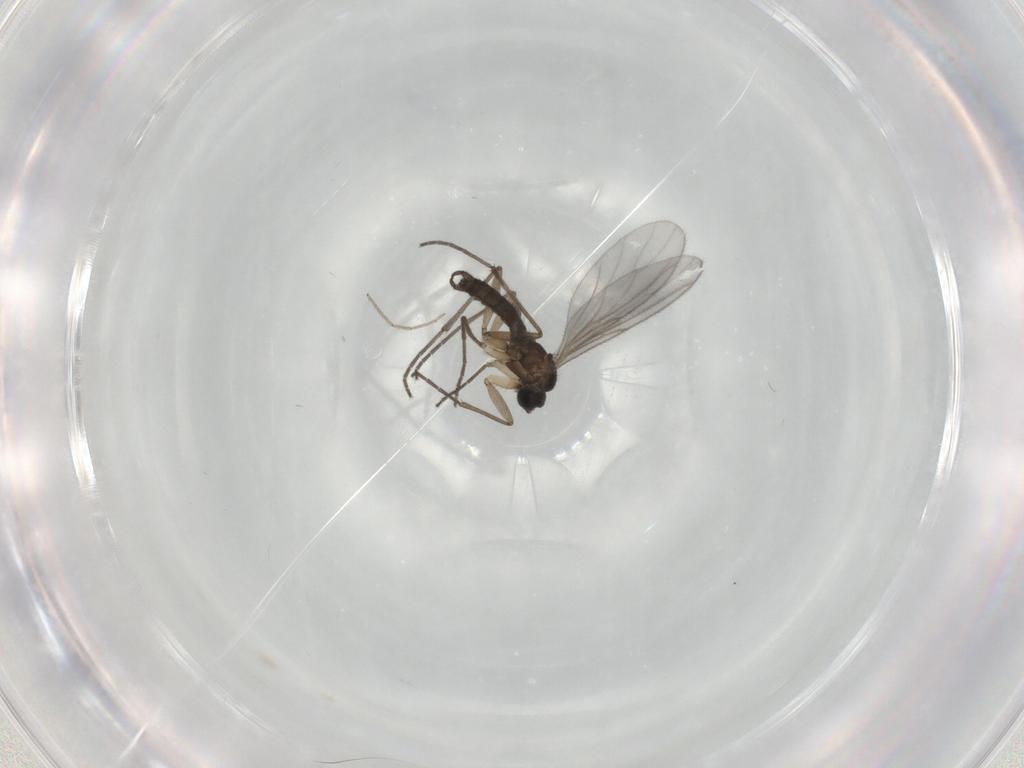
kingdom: Animalia
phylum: Arthropoda
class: Insecta
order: Diptera
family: Sciaridae
